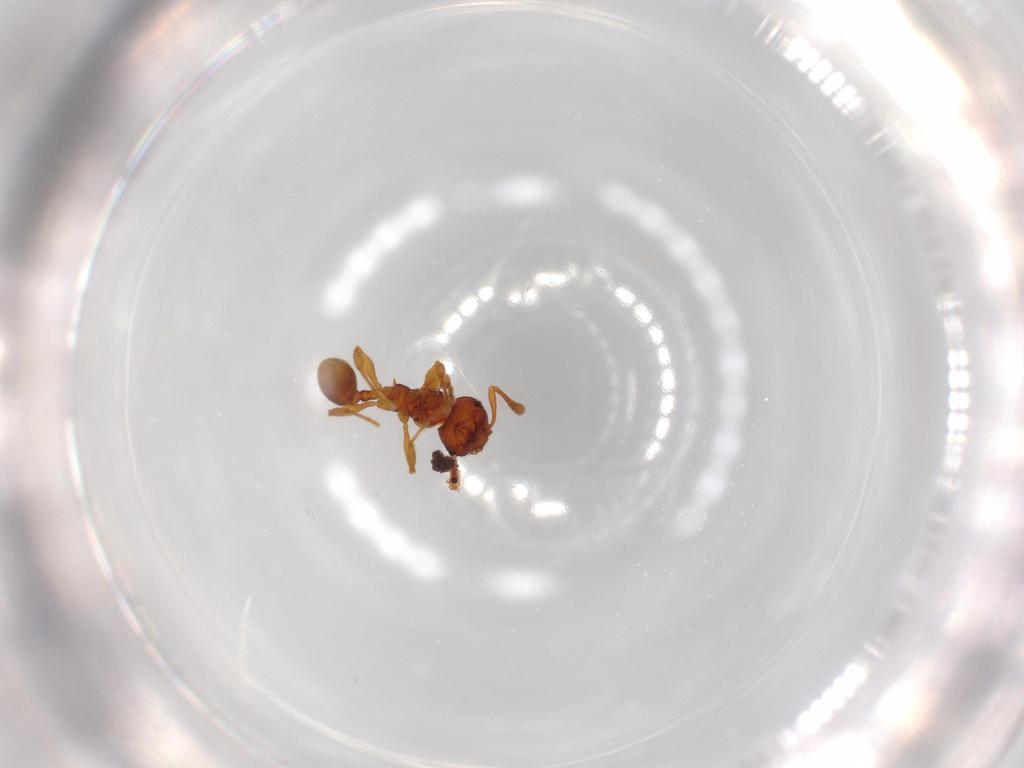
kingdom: Animalia
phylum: Arthropoda
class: Insecta
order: Hymenoptera
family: Formicidae
